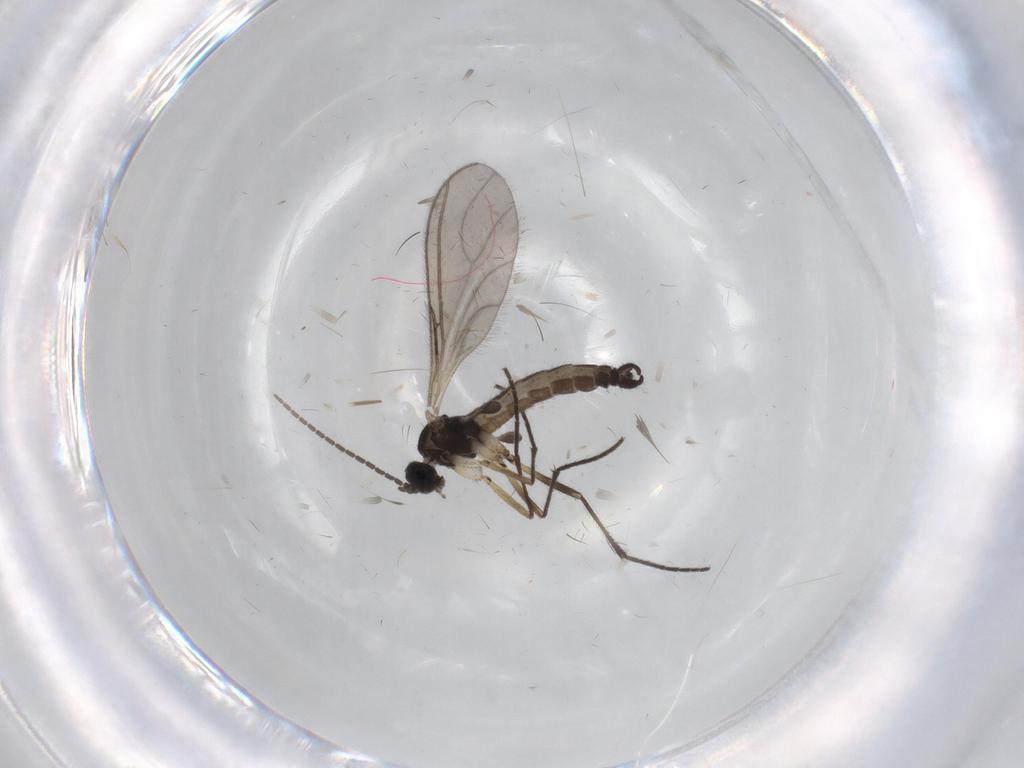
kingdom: Animalia
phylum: Arthropoda
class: Insecta
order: Diptera
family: Sciaridae
